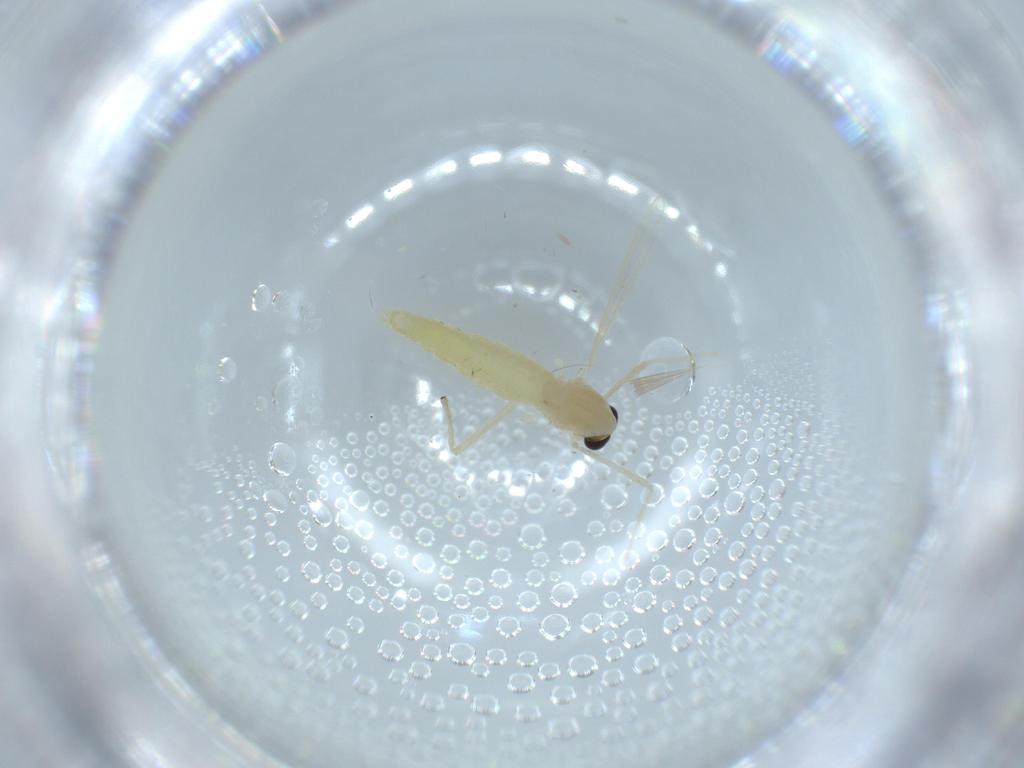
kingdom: Animalia
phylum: Arthropoda
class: Insecta
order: Diptera
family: Chironomidae
